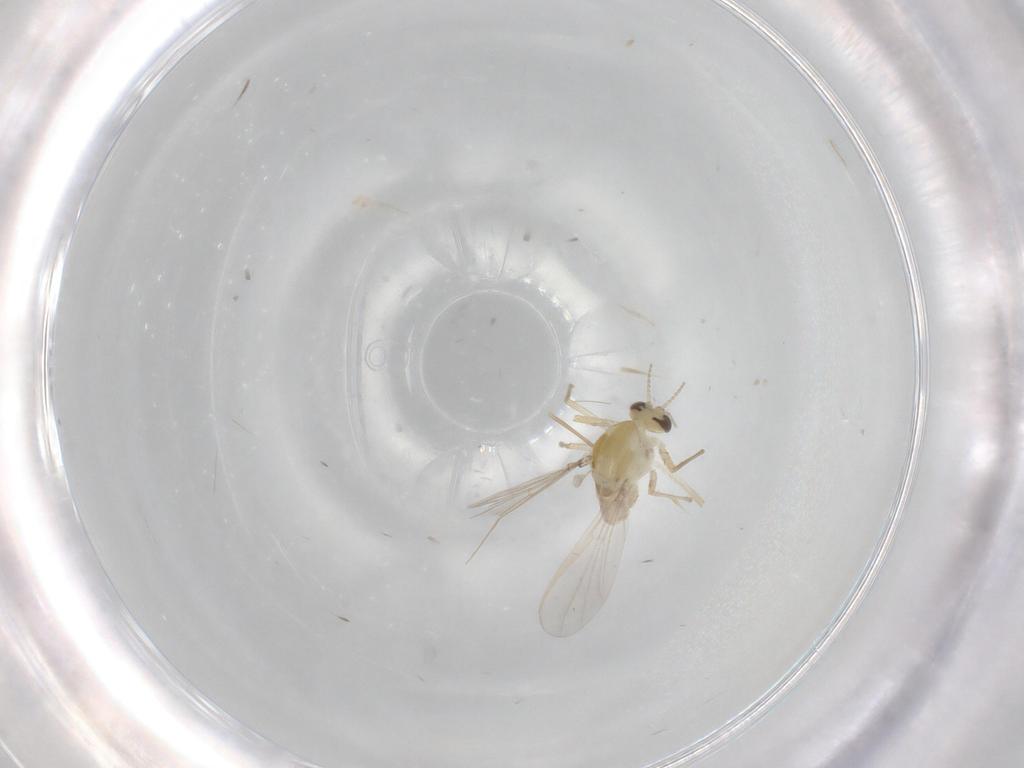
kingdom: Animalia
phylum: Arthropoda
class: Insecta
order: Diptera
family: Chironomidae
